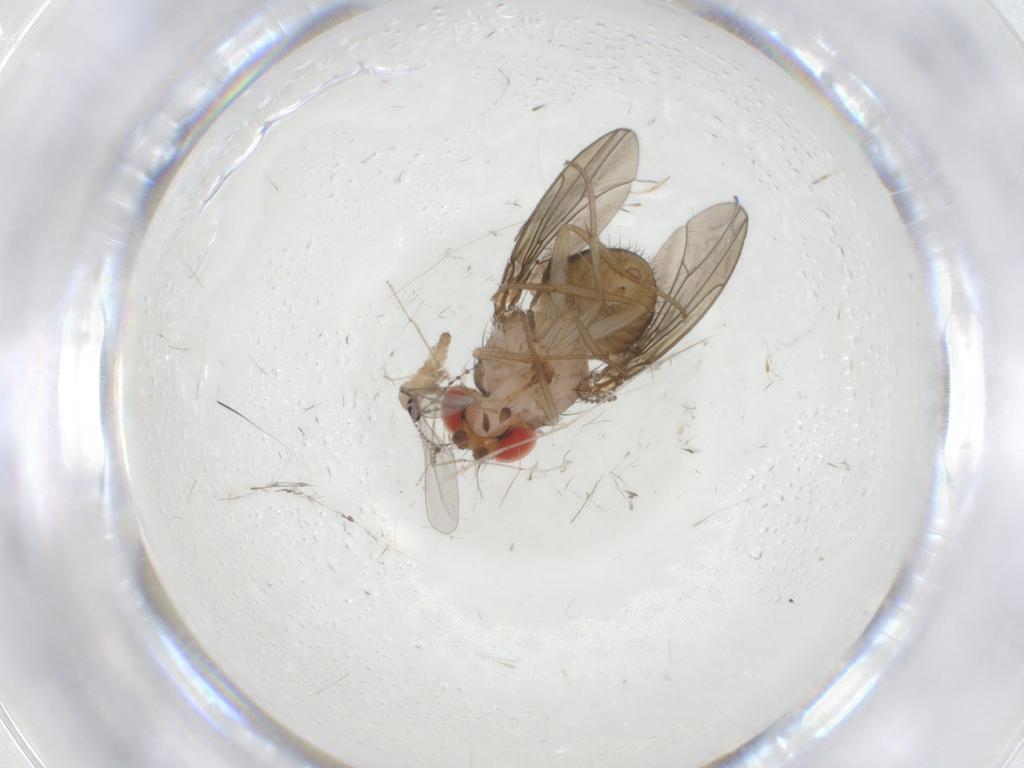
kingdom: Animalia
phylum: Arthropoda
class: Insecta
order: Diptera
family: Drosophilidae
